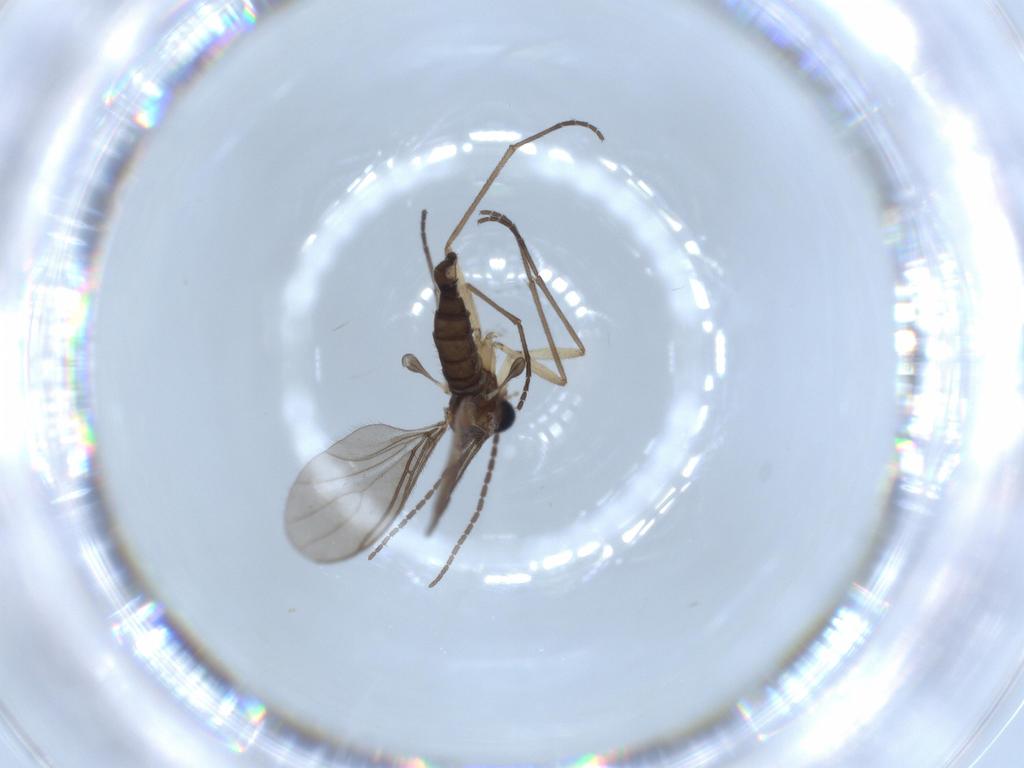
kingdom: Animalia
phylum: Arthropoda
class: Insecta
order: Diptera
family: Sciaridae
